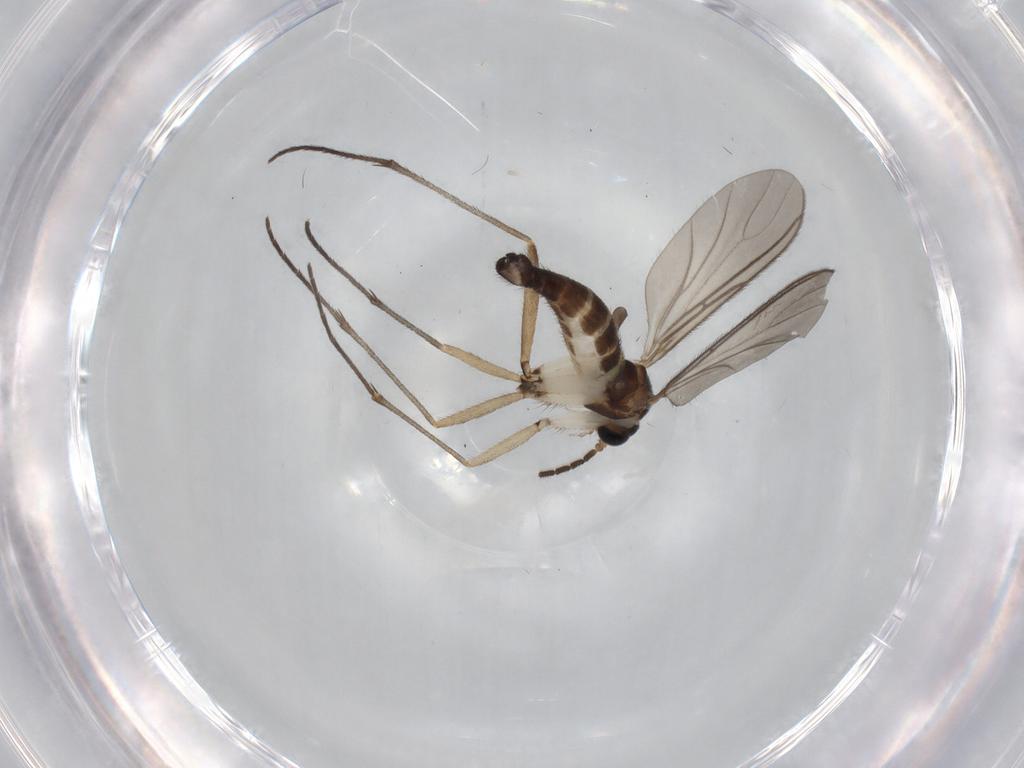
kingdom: Animalia
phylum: Arthropoda
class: Insecta
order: Diptera
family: Sciaridae
